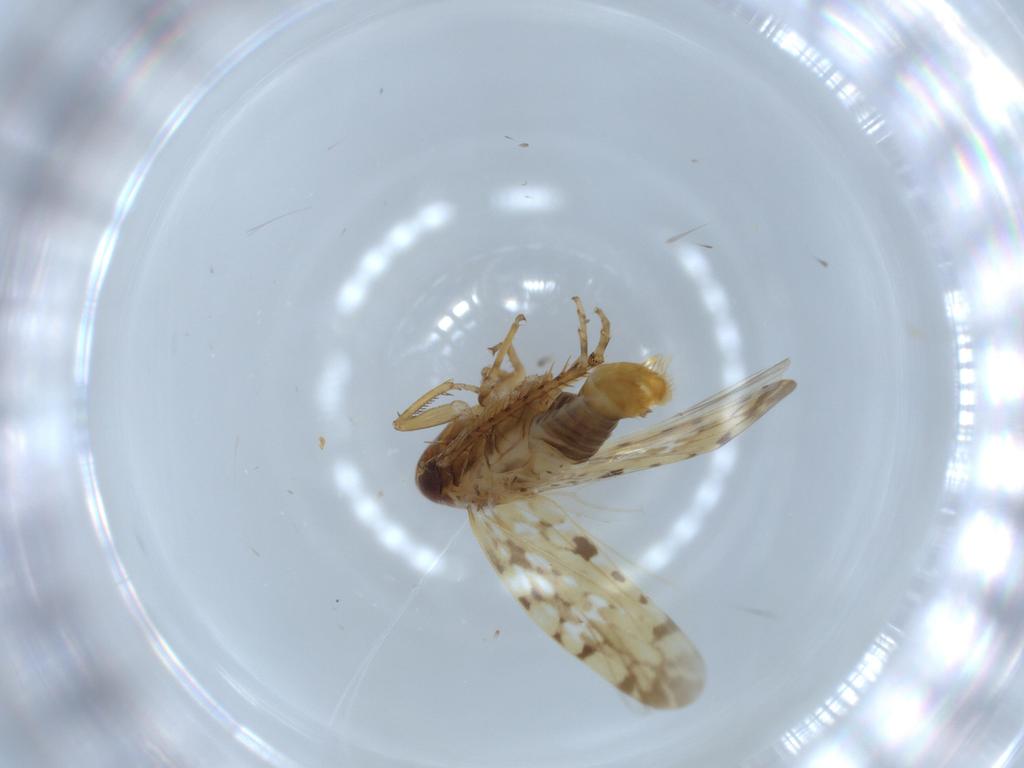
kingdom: Animalia
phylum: Arthropoda
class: Insecta
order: Hemiptera
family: Cicadellidae
